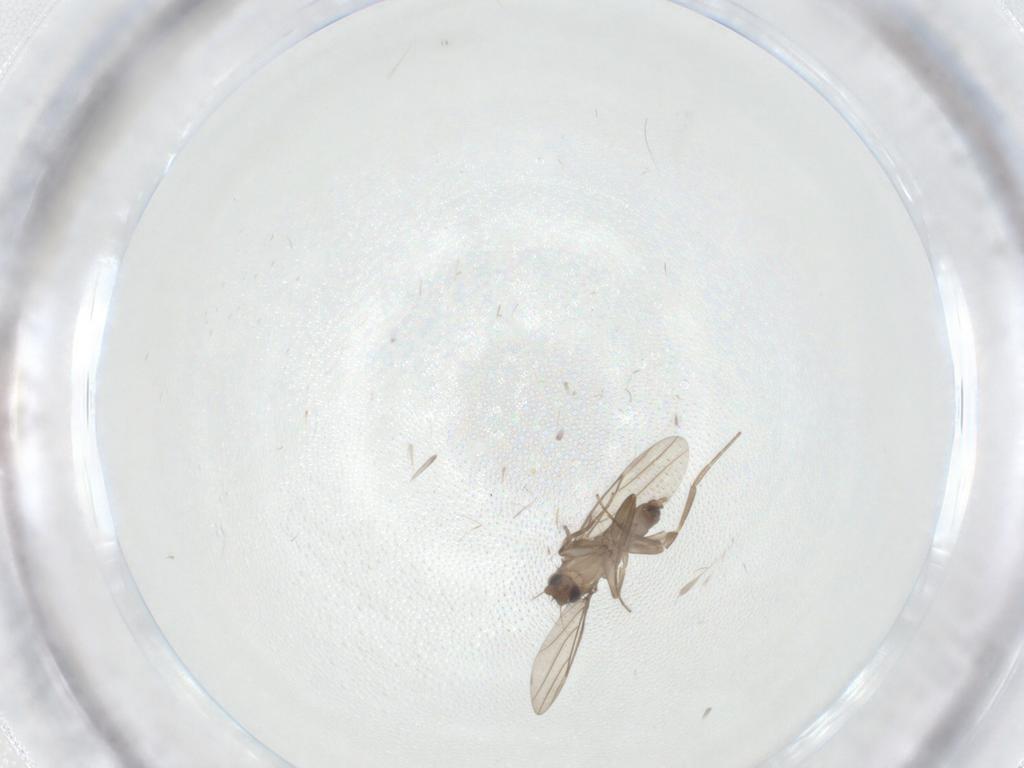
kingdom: Animalia
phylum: Arthropoda
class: Insecta
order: Diptera
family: Phoridae
